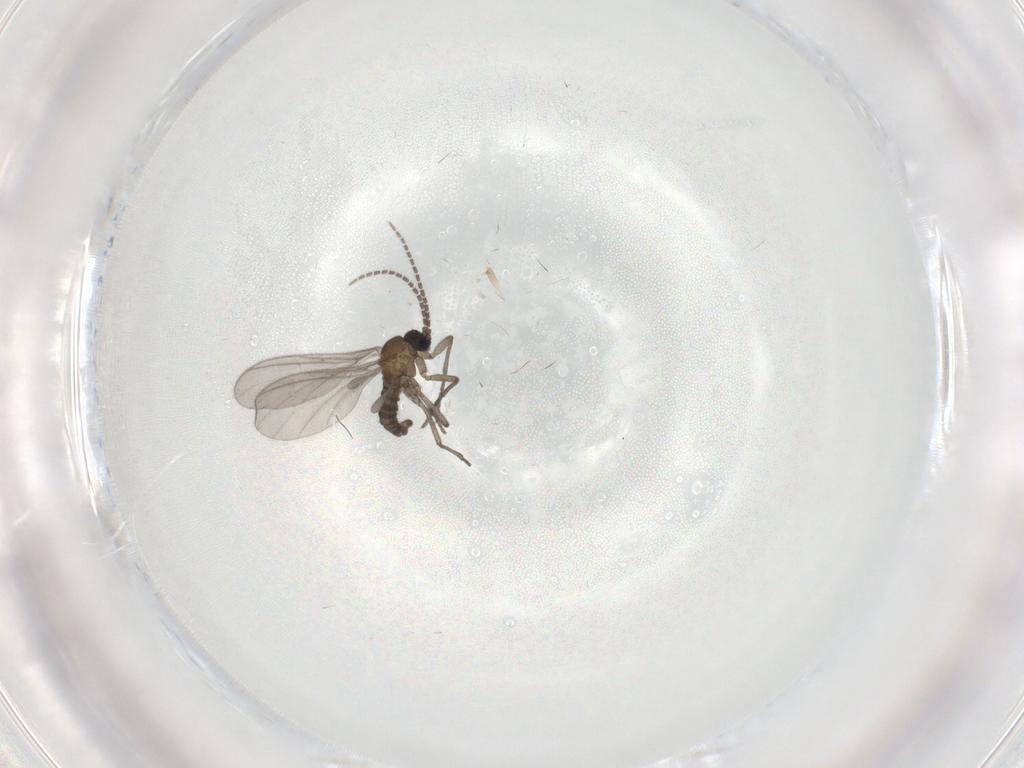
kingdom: Animalia
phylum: Arthropoda
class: Insecta
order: Diptera
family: Sciaridae
